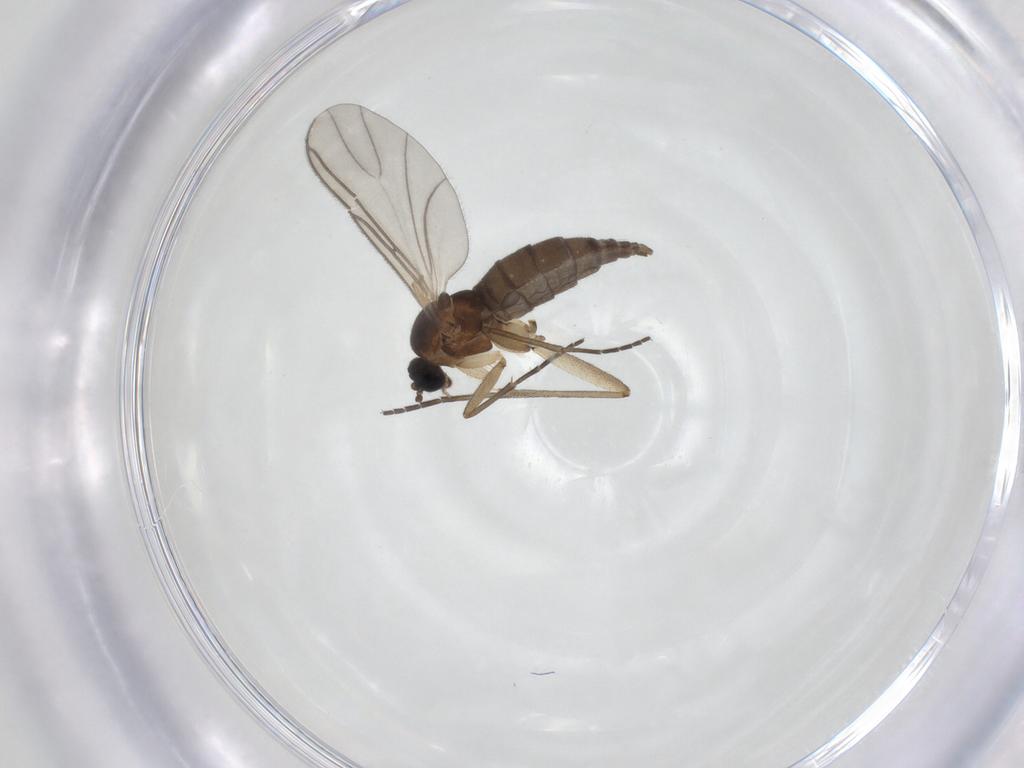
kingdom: Animalia
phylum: Arthropoda
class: Insecta
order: Diptera
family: Sciaridae
